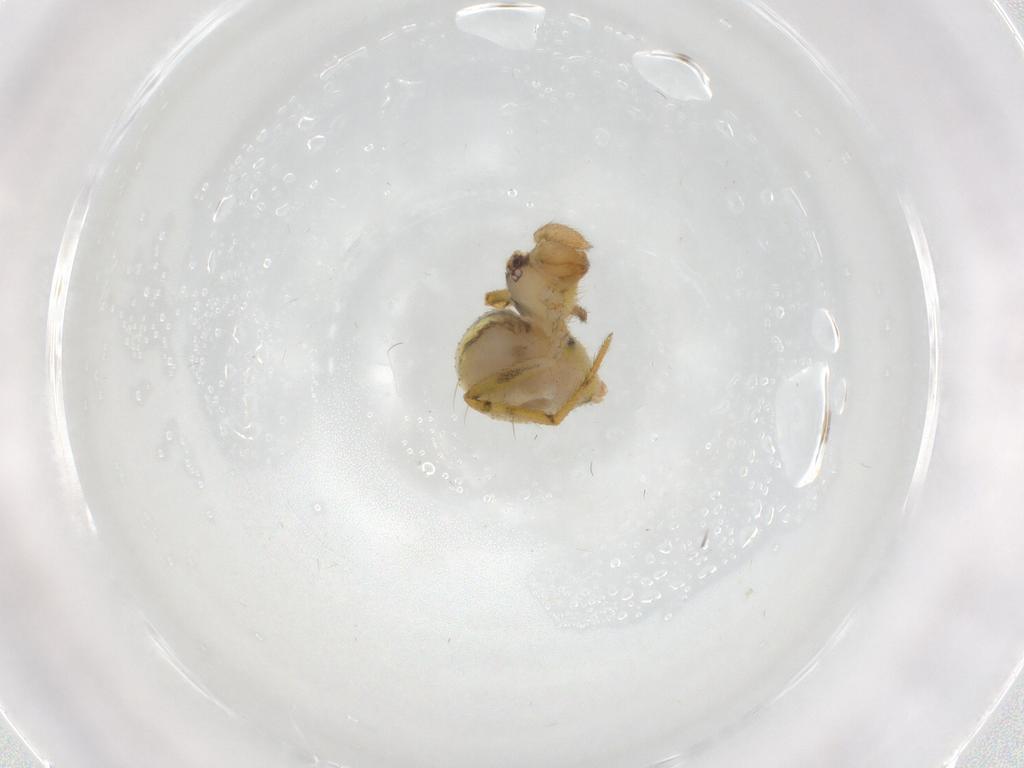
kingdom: Animalia
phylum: Arthropoda
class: Arachnida
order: Araneae
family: Theridiidae
